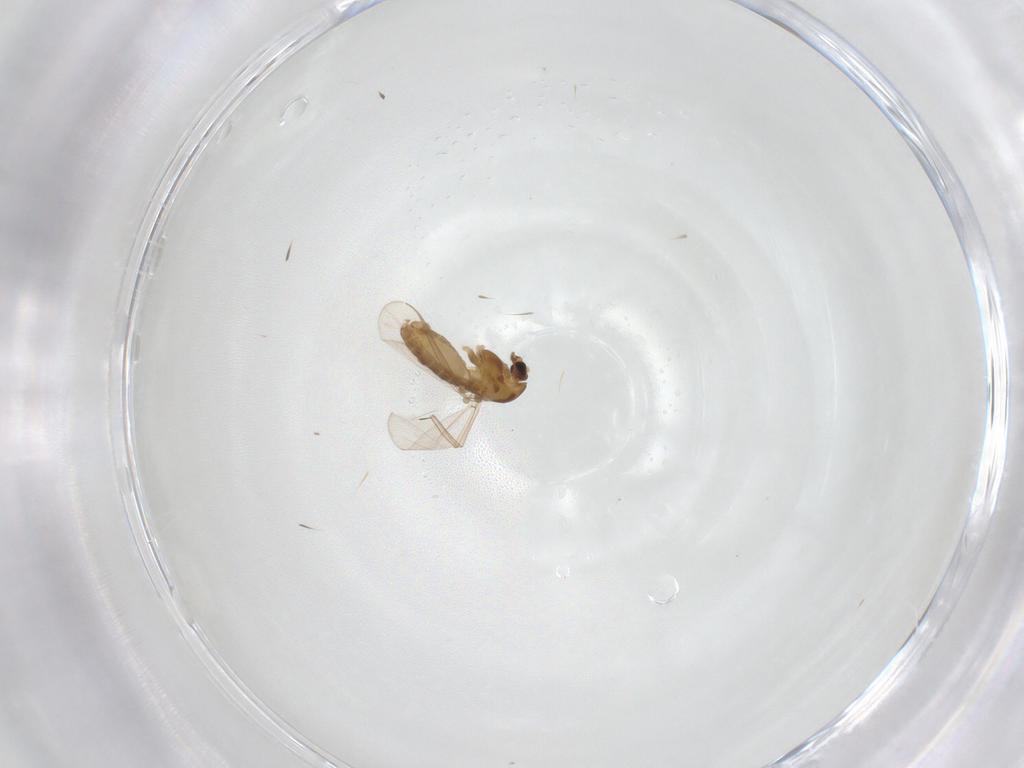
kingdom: Animalia
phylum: Arthropoda
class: Insecta
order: Diptera
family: Chironomidae
